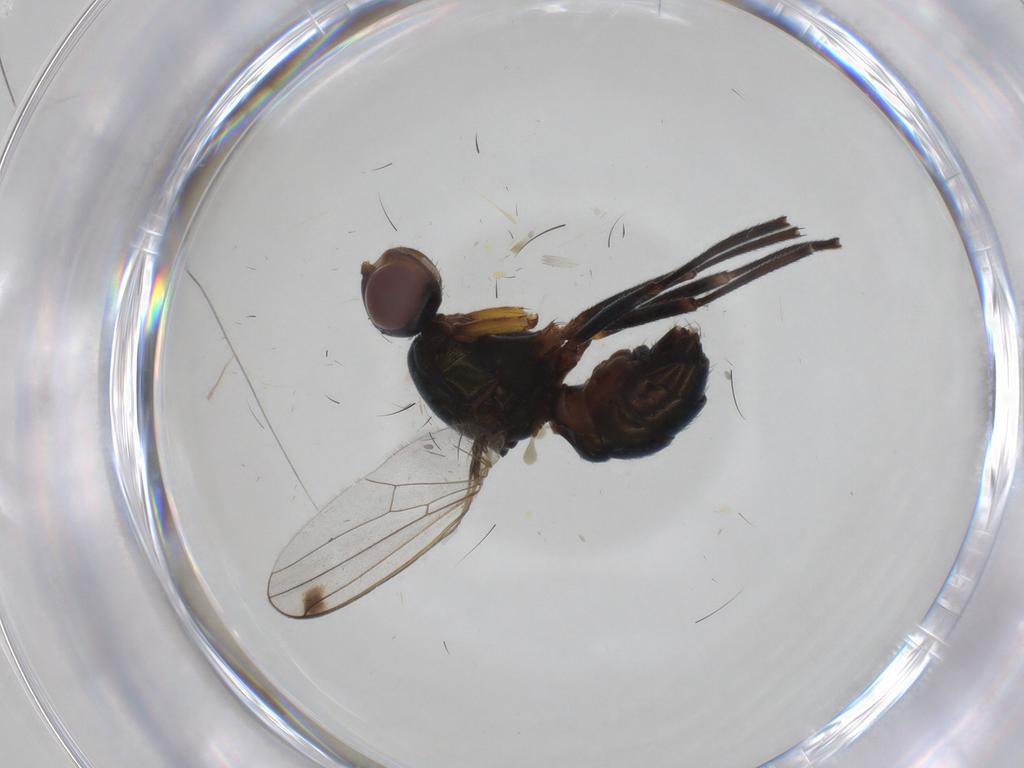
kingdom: Animalia
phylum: Arthropoda
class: Insecta
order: Diptera
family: Sepsidae
